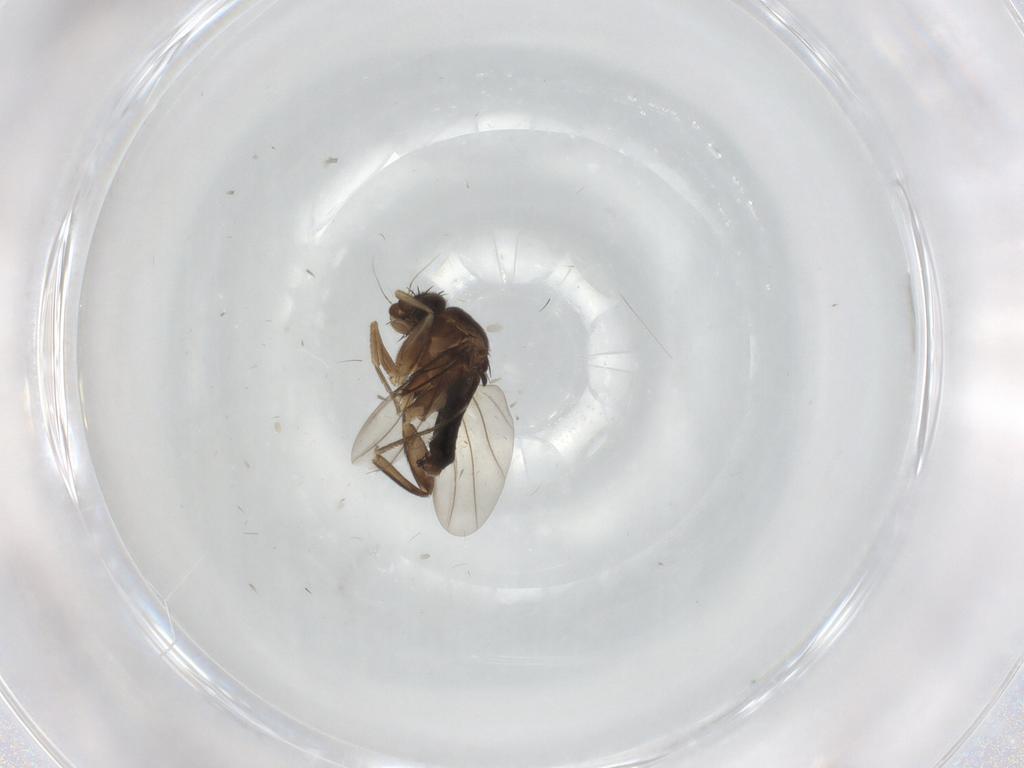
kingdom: Animalia
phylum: Arthropoda
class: Insecta
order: Diptera
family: Phoridae
